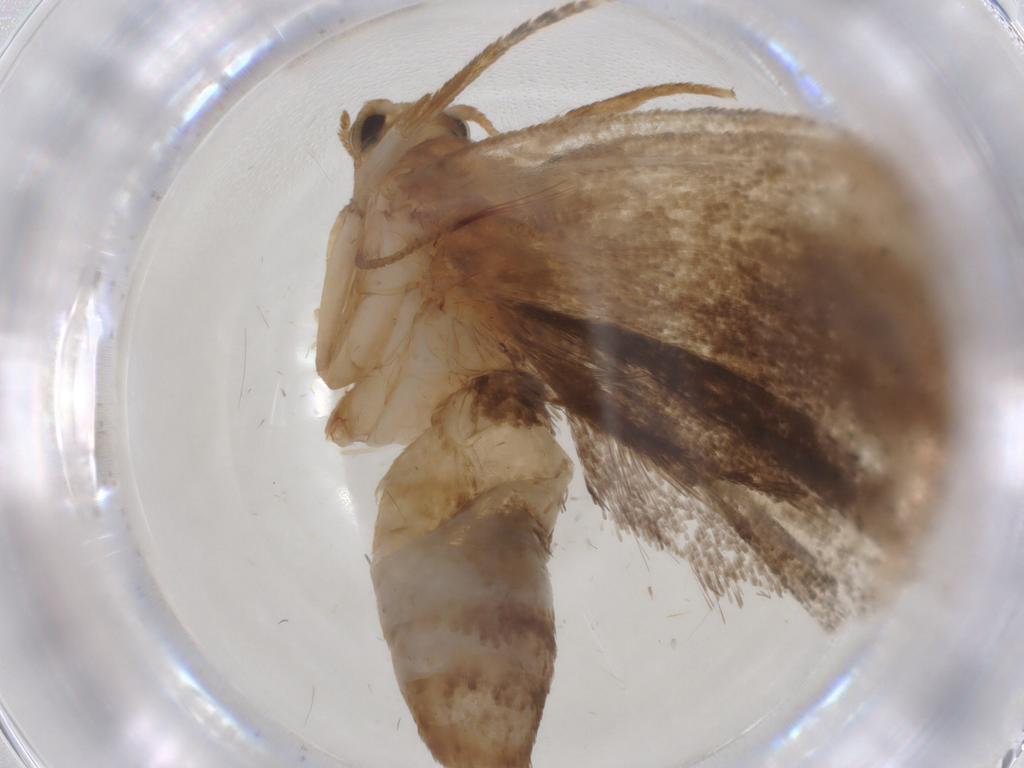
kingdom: Animalia
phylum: Arthropoda
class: Insecta
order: Lepidoptera
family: Geometridae
